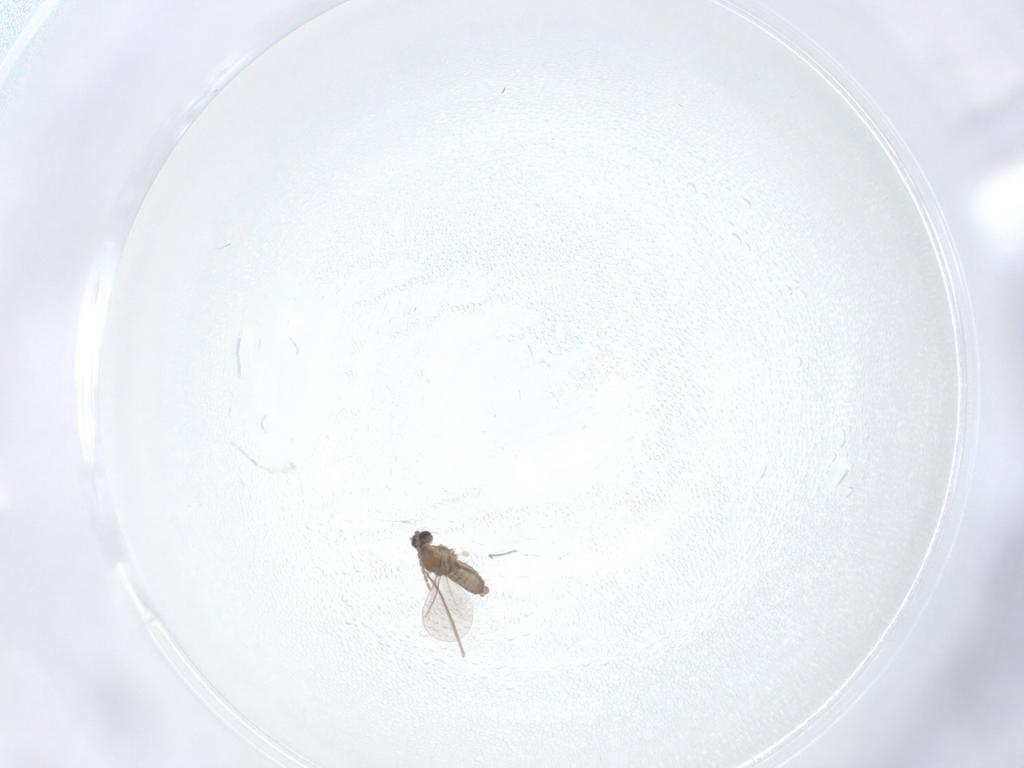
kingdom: Animalia
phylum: Arthropoda
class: Insecta
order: Diptera
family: Cecidomyiidae
